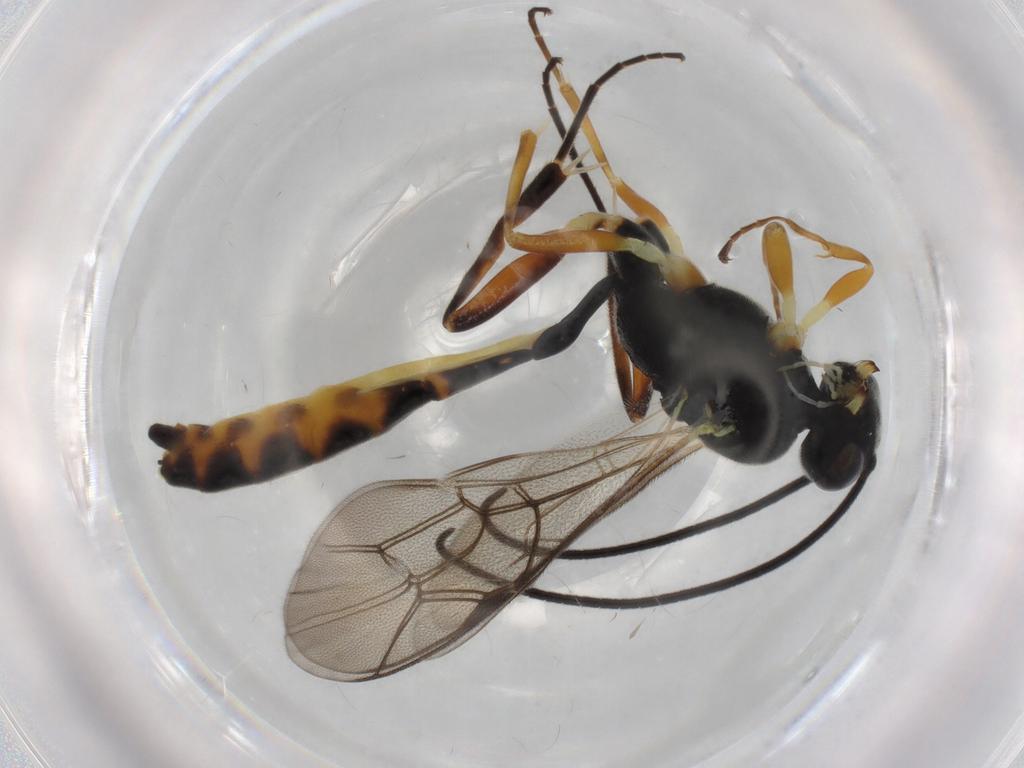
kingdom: Animalia
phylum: Arthropoda
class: Insecta
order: Hymenoptera
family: Ichneumonidae
